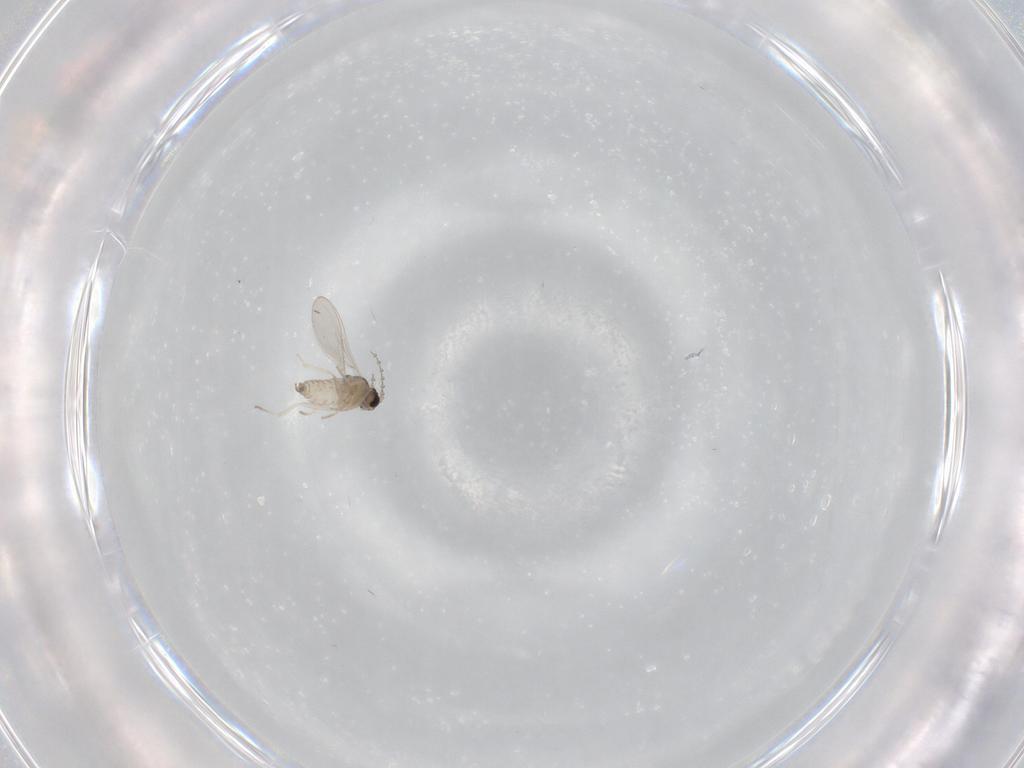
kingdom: Animalia
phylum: Arthropoda
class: Insecta
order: Diptera
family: Cecidomyiidae
